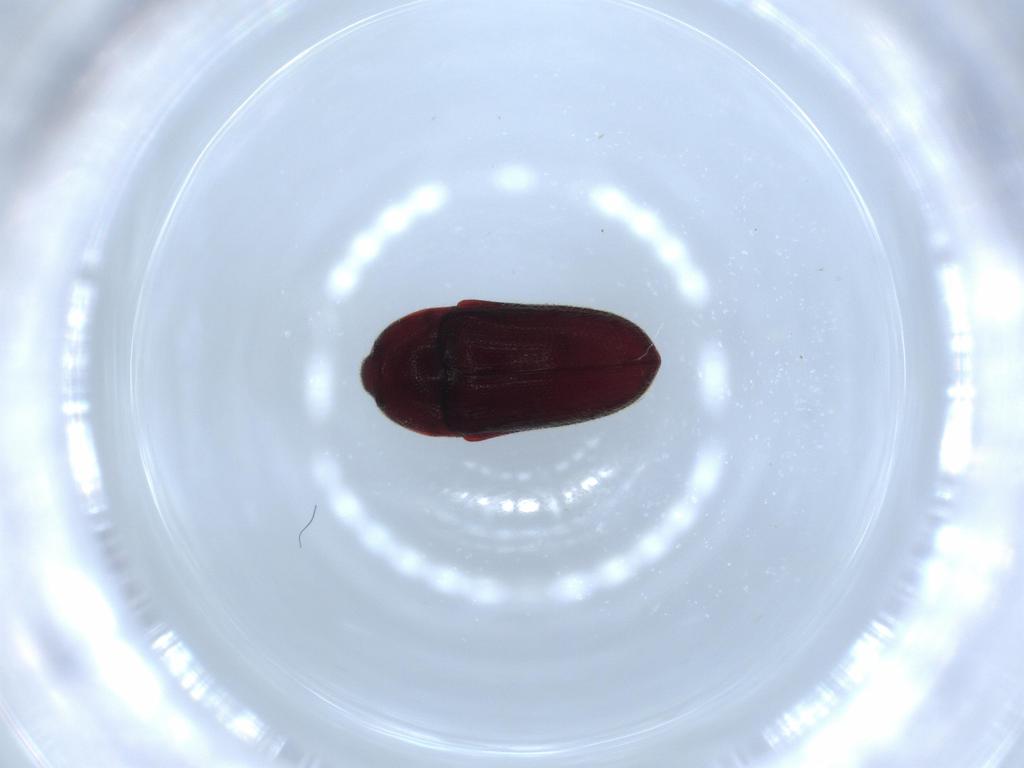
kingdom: Animalia
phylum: Arthropoda
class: Insecta
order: Coleoptera
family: Throscidae
